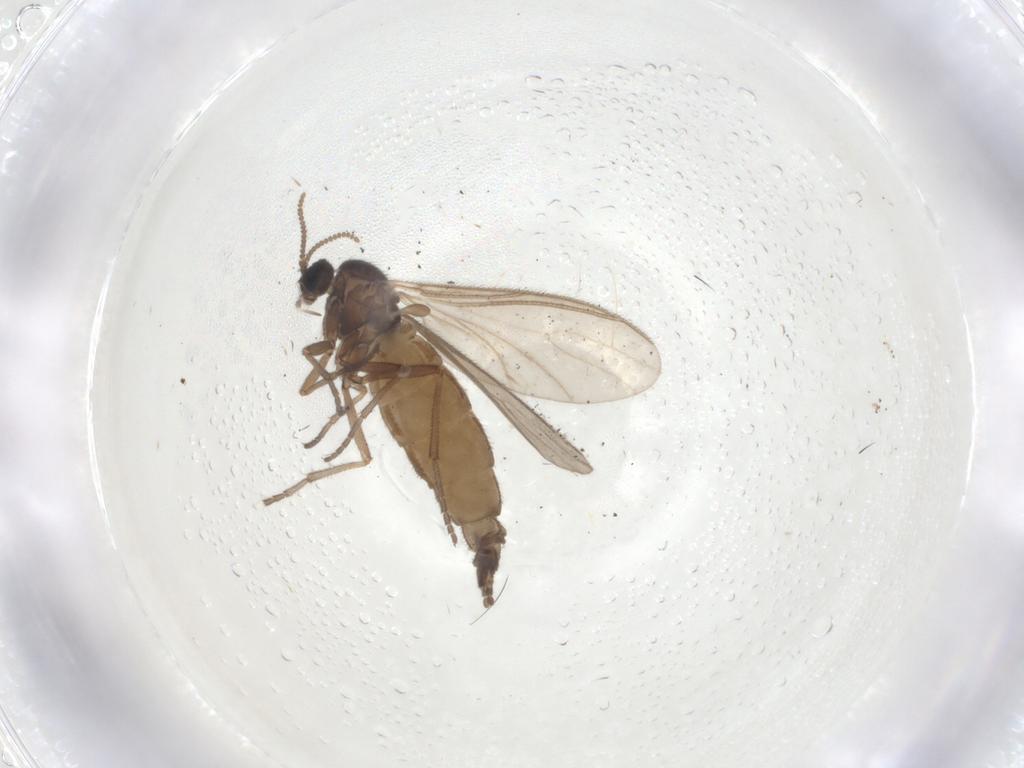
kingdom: Animalia
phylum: Arthropoda
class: Insecta
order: Diptera
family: Sciaridae
